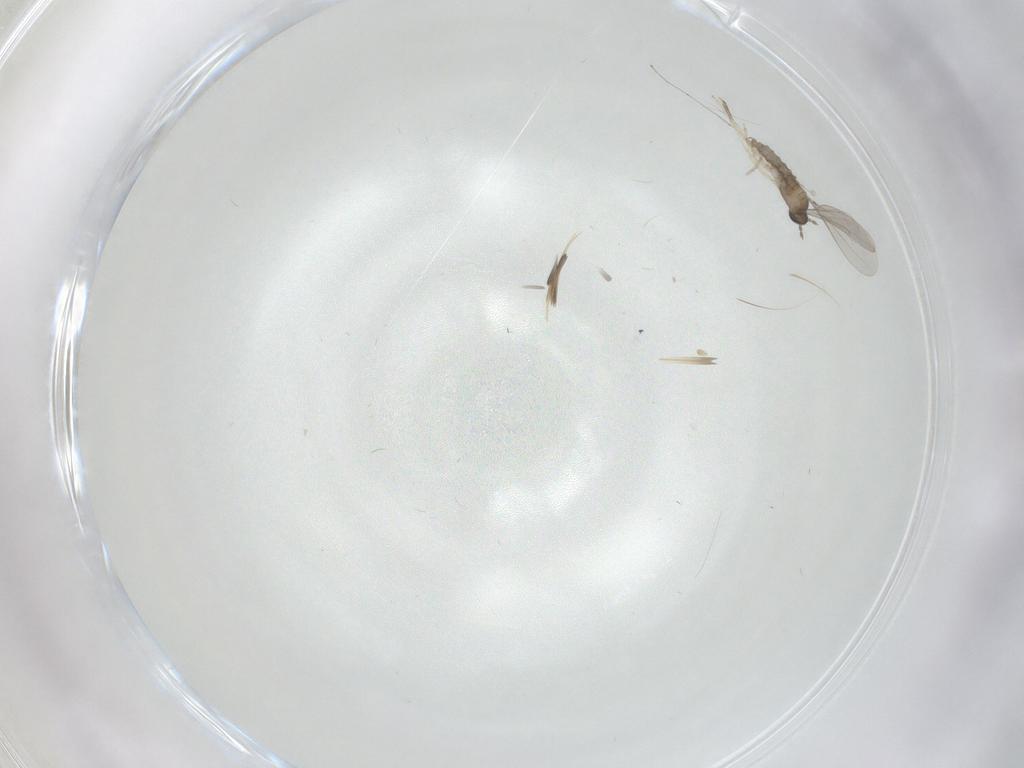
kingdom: Animalia
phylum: Arthropoda
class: Insecta
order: Diptera
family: Cecidomyiidae
